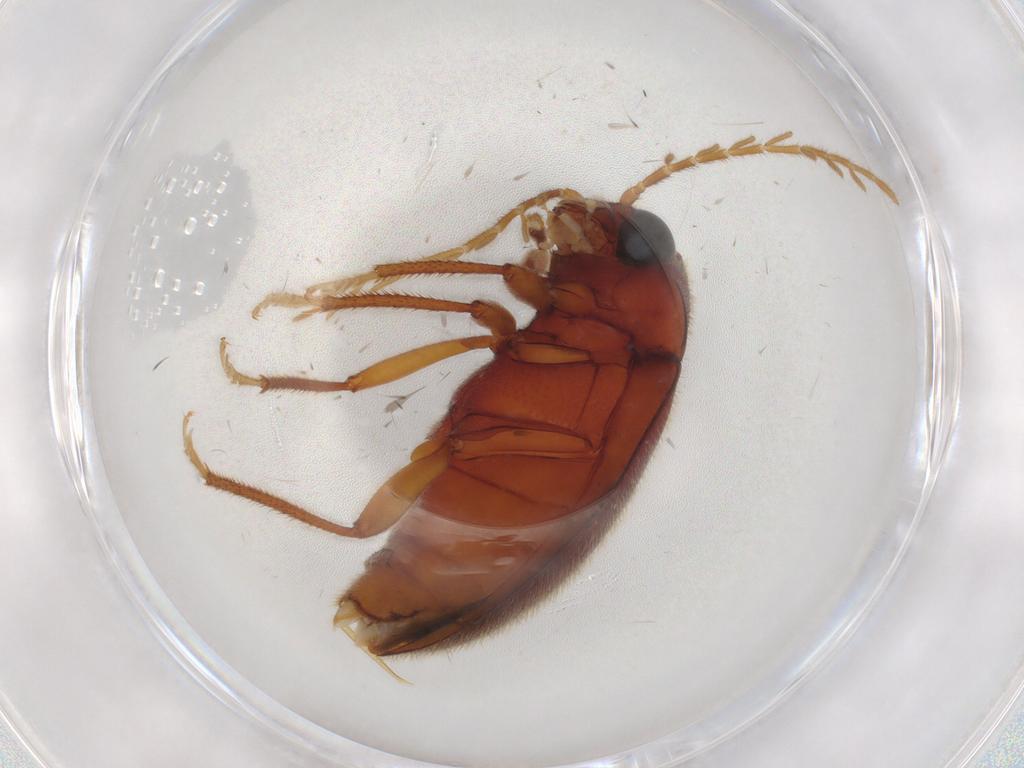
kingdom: Animalia
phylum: Arthropoda
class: Insecta
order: Coleoptera
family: Ptilodactylidae
